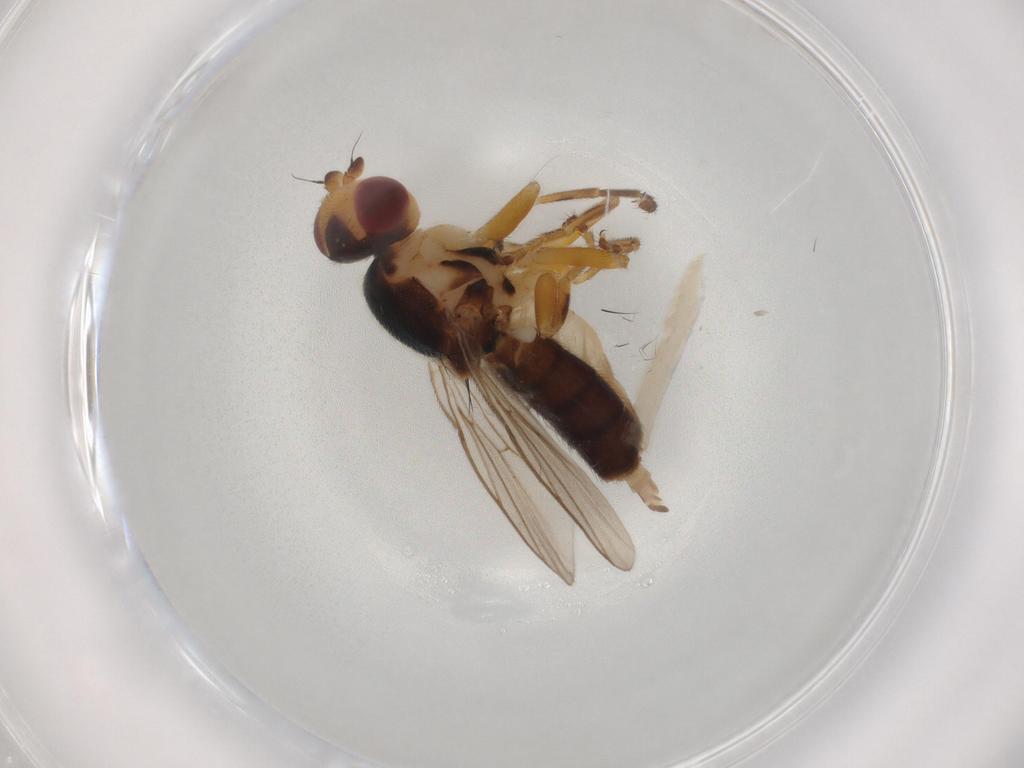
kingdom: Animalia
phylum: Arthropoda
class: Insecta
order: Diptera
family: Chloropidae
